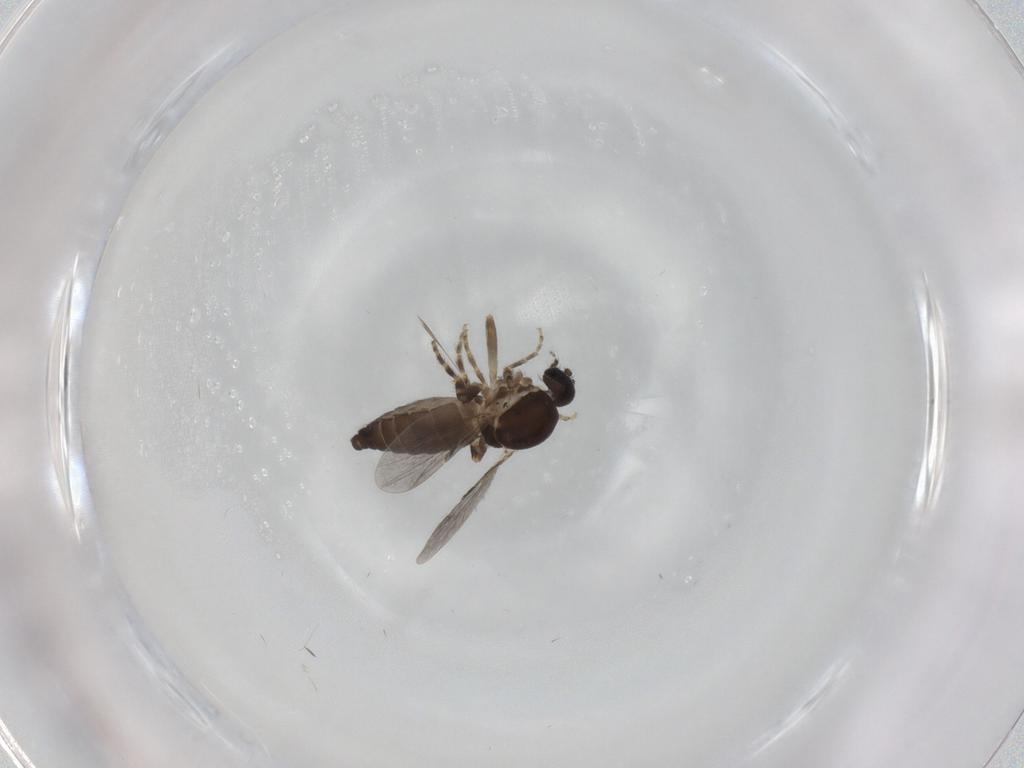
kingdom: Animalia
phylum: Arthropoda
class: Insecta
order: Diptera
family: Ceratopogonidae
